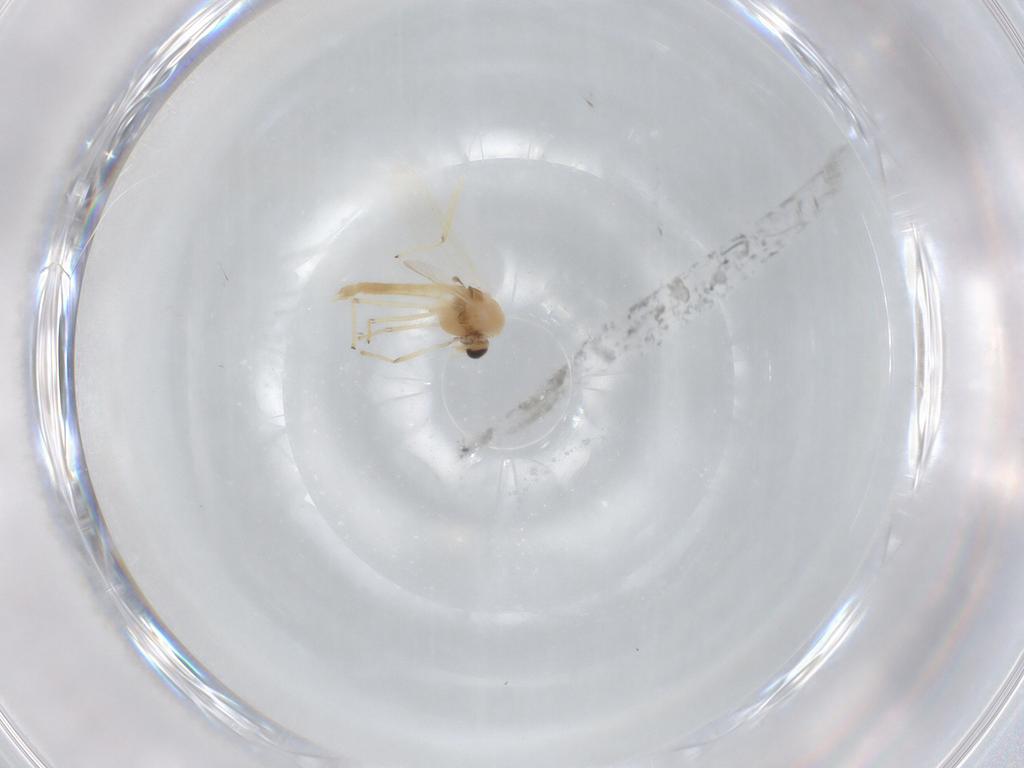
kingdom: Animalia
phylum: Arthropoda
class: Insecta
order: Diptera
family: Chironomidae
